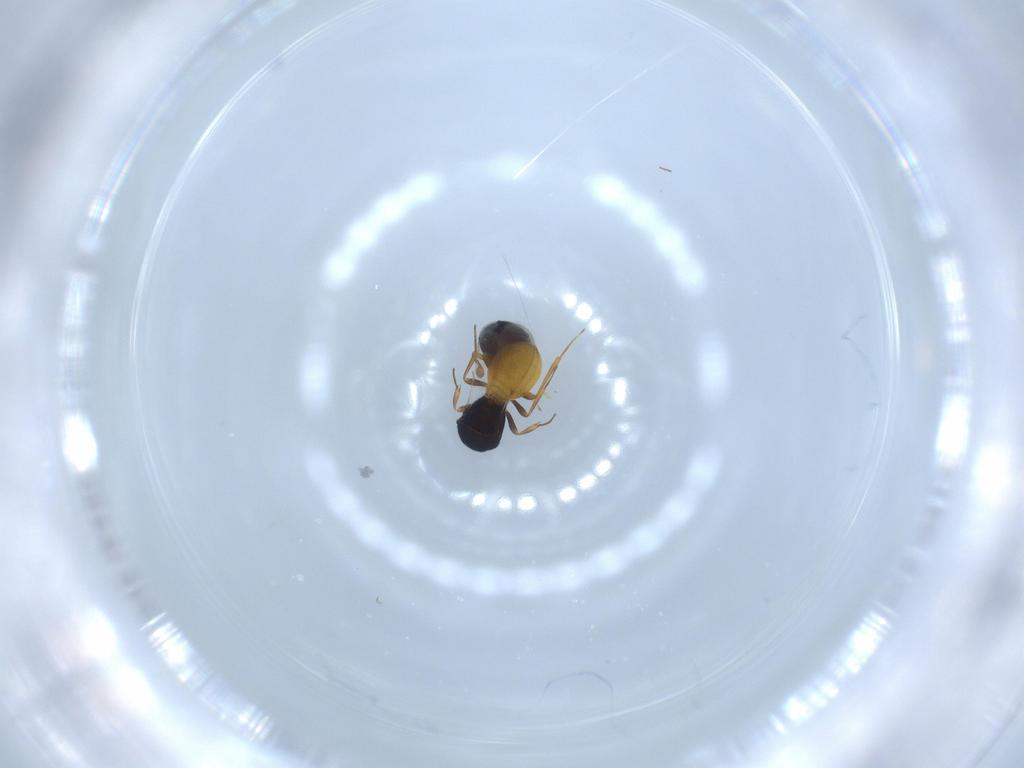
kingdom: Animalia
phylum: Arthropoda
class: Insecta
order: Hymenoptera
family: Scelionidae
